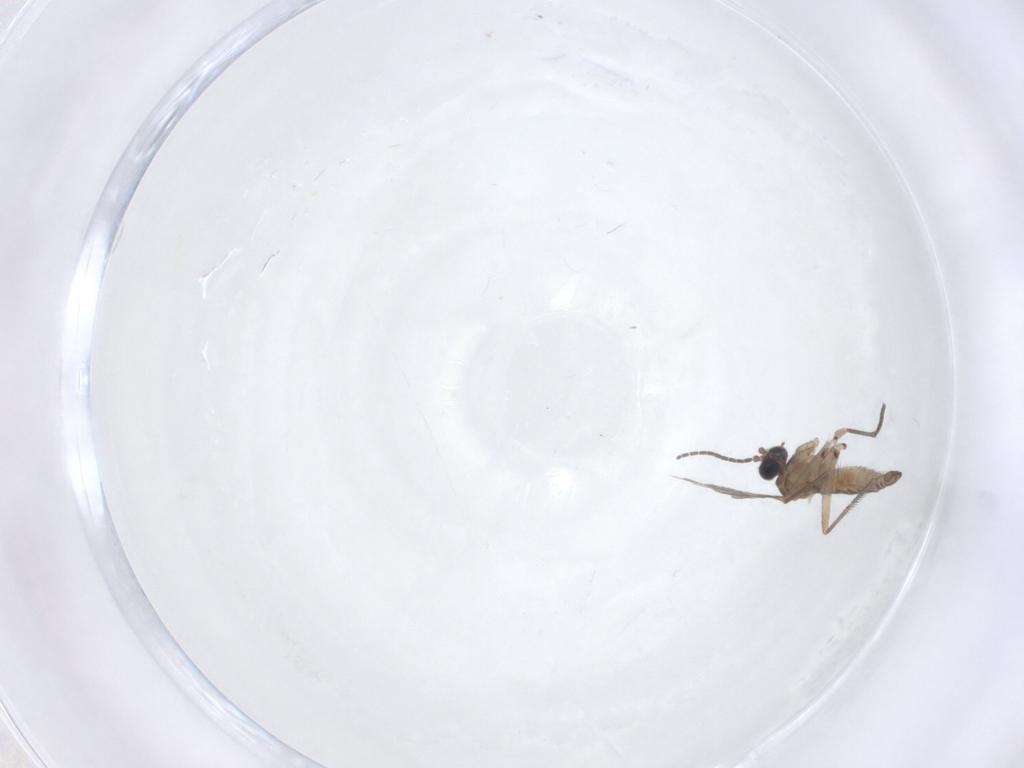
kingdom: Animalia
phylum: Arthropoda
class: Insecta
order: Diptera
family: Sciaridae
